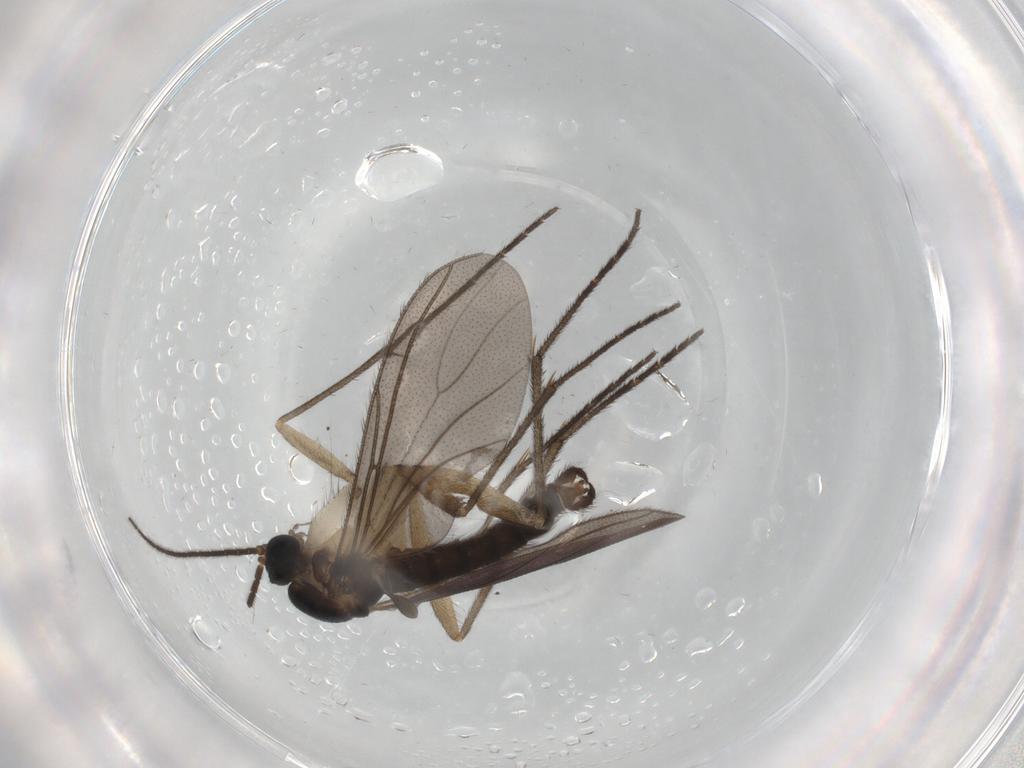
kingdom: Animalia
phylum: Arthropoda
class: Insecta
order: Diptera
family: Sciaridae
